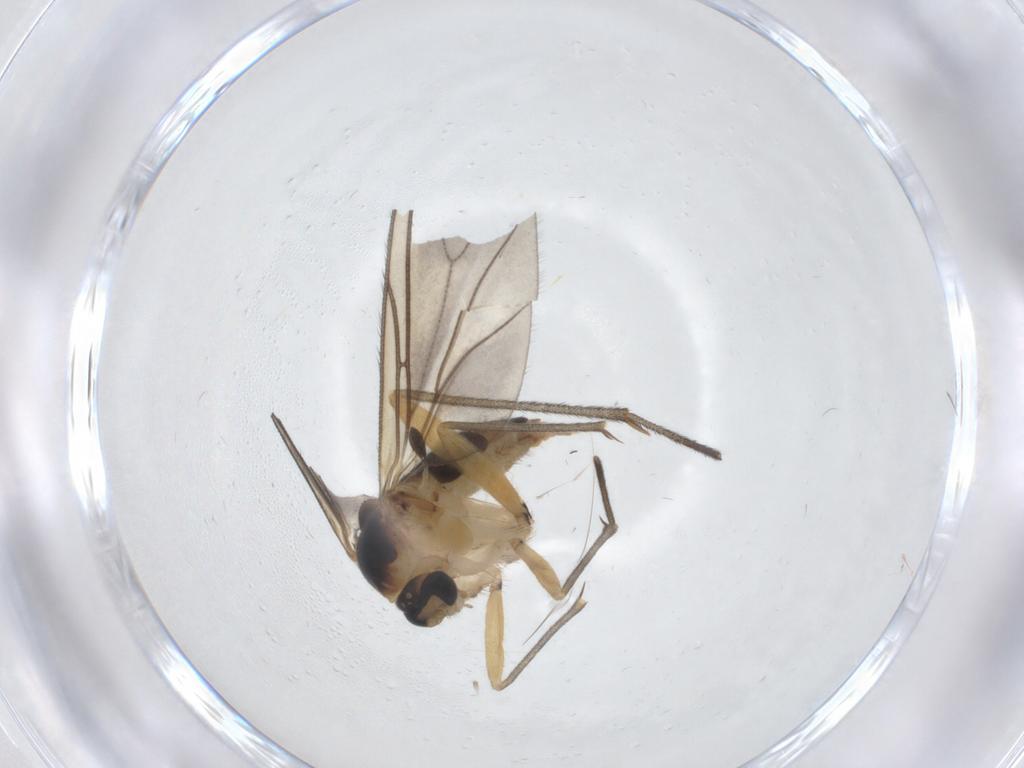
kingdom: Animalia
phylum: Arthropoda
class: Insecta
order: Diptera
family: Sciaridae
